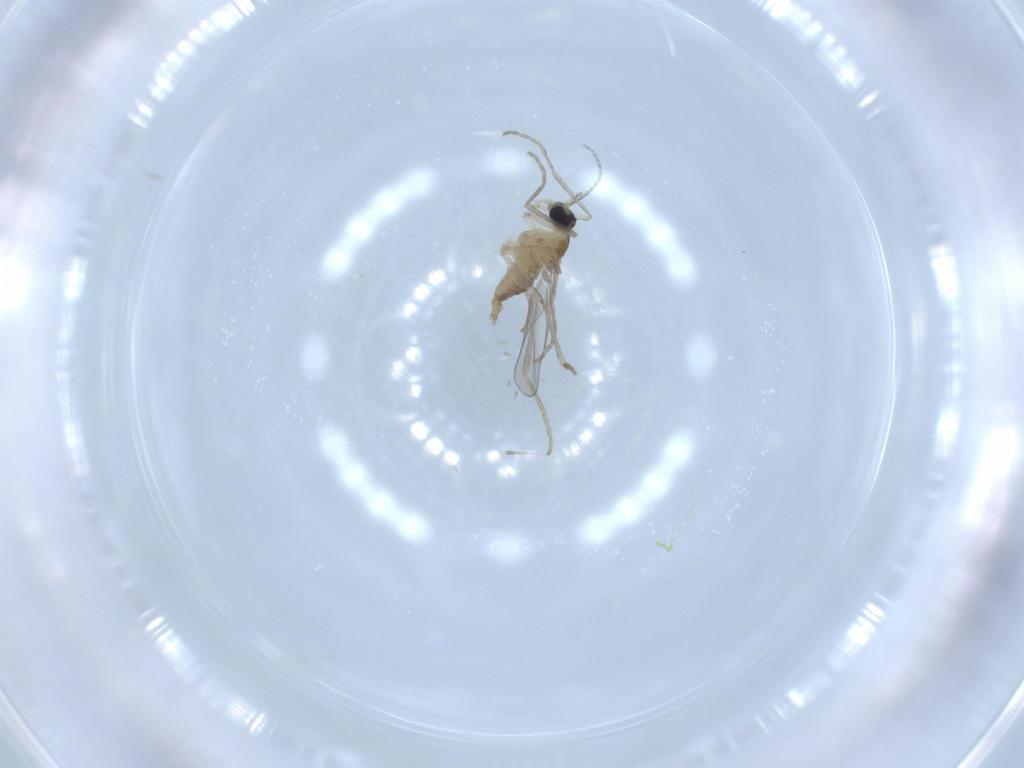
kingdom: Animalia
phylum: Arthropoda
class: Insecta
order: Diptera
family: Cecidomyiidae
